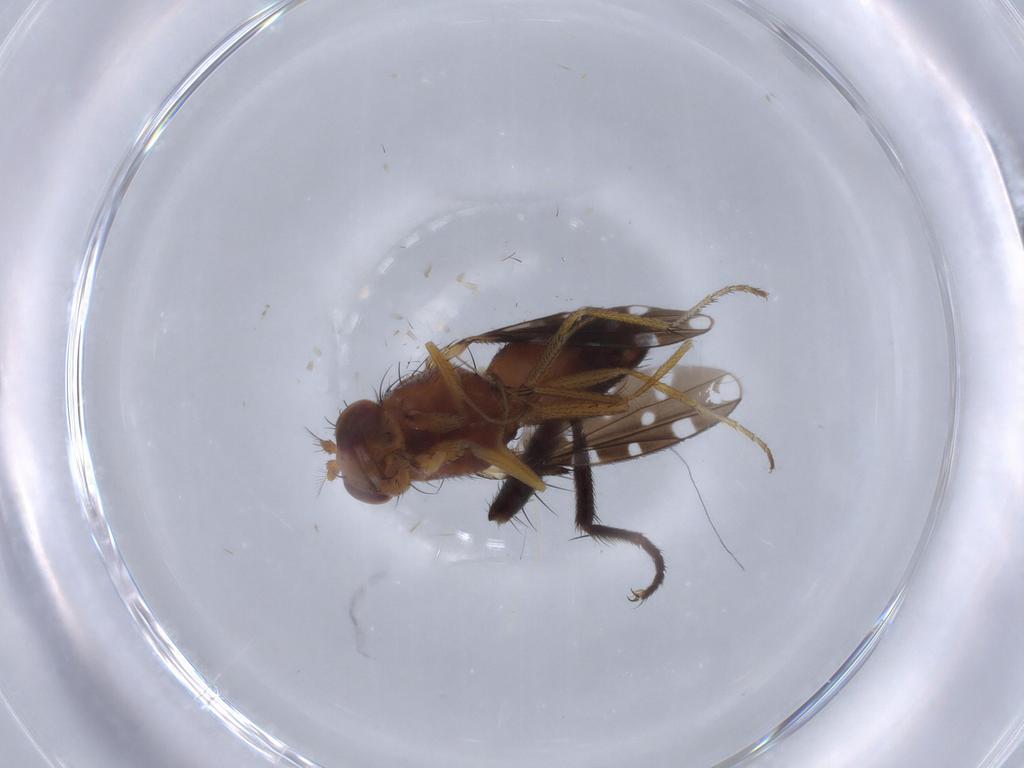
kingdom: Animalia
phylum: Arthropoda
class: Insecta
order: Diptera
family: Ephydridae
